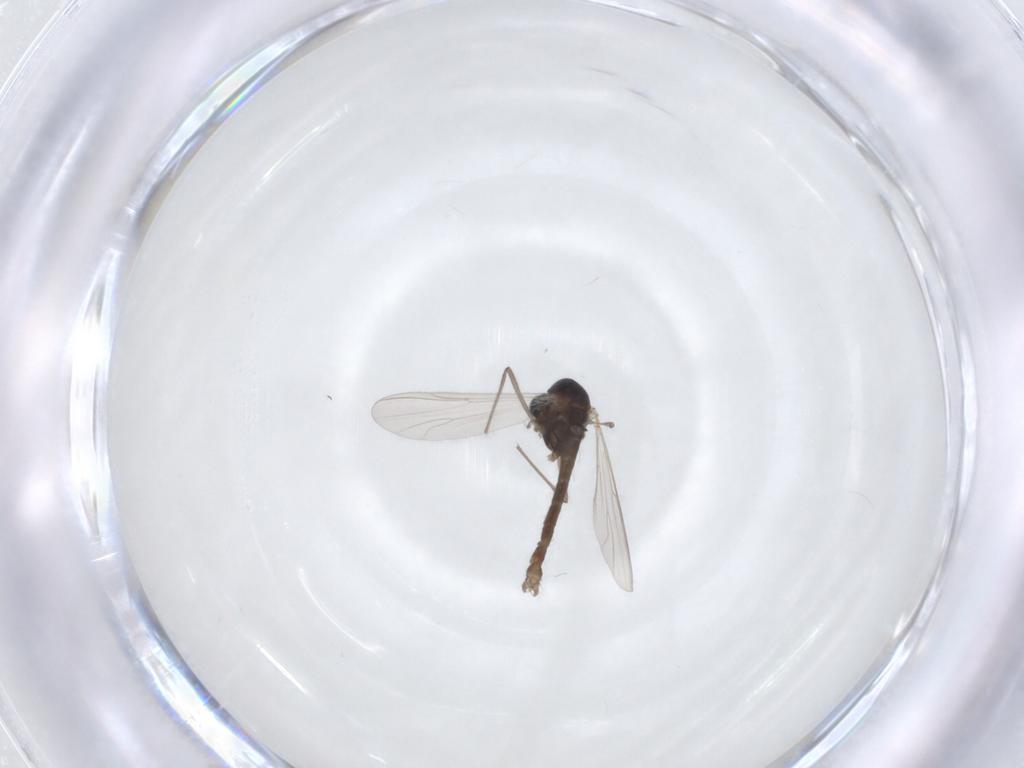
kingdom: Animalia
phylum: Arthropoda
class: Insecta
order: Diptera
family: Chironomidae
